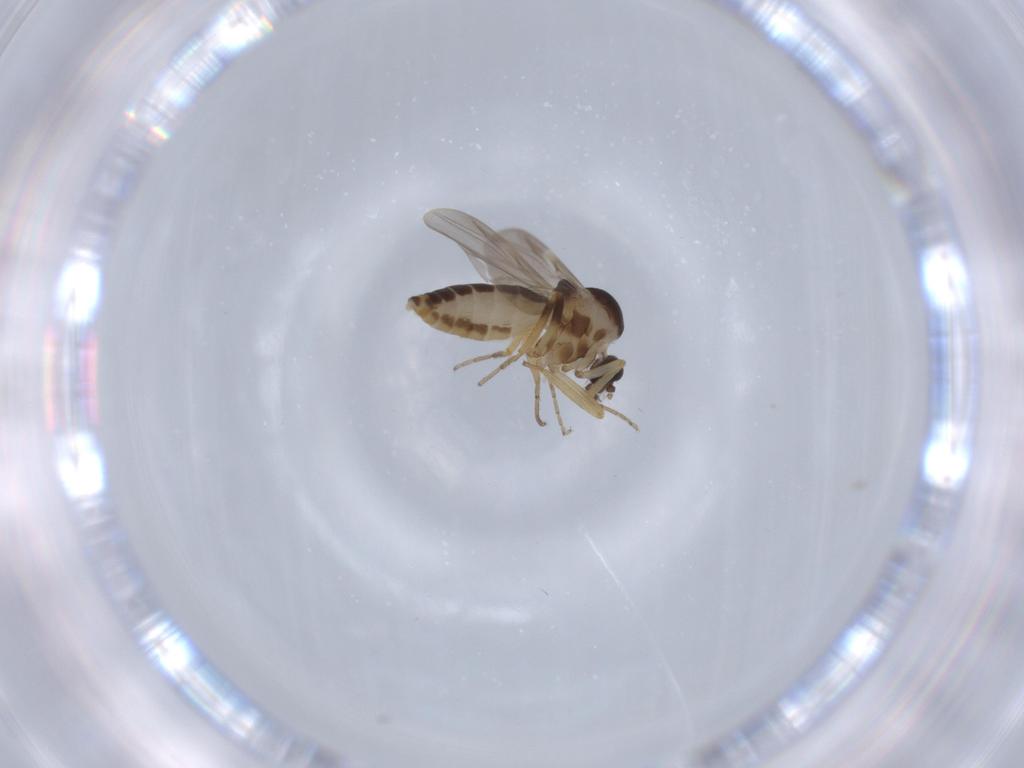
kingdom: Animalia
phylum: Arthropoda
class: Insecta
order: Diptera
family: Ceratopogonidae
